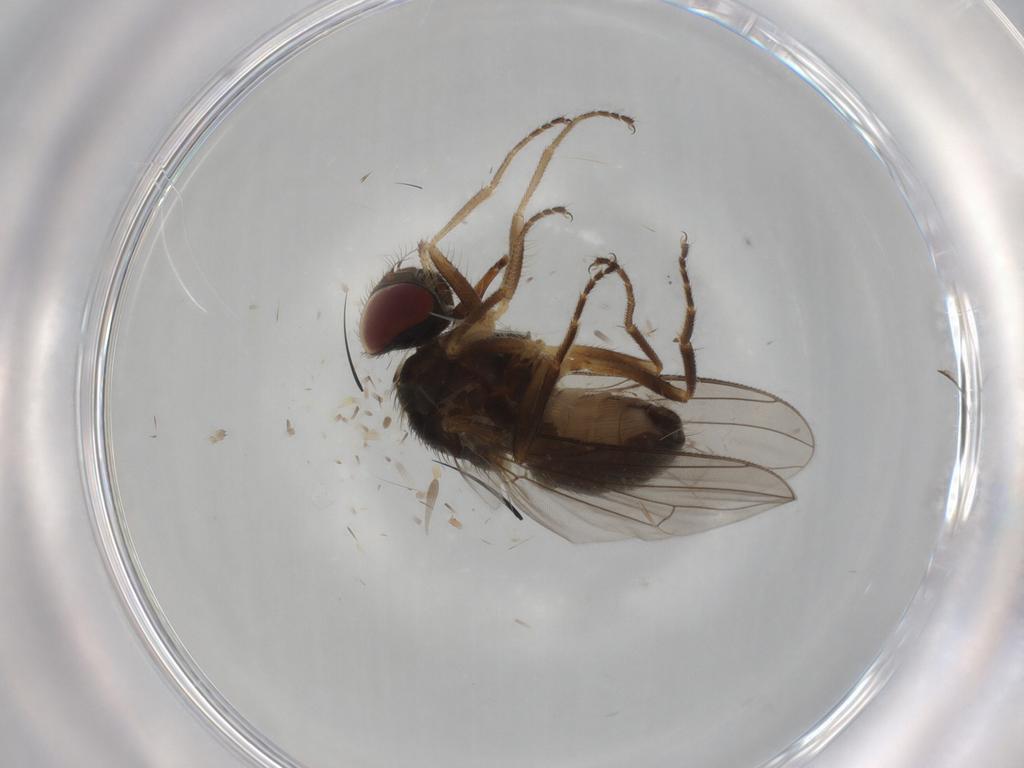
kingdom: Animalia
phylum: Arthropoda
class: Insecta
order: Diptera
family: Muscidae
